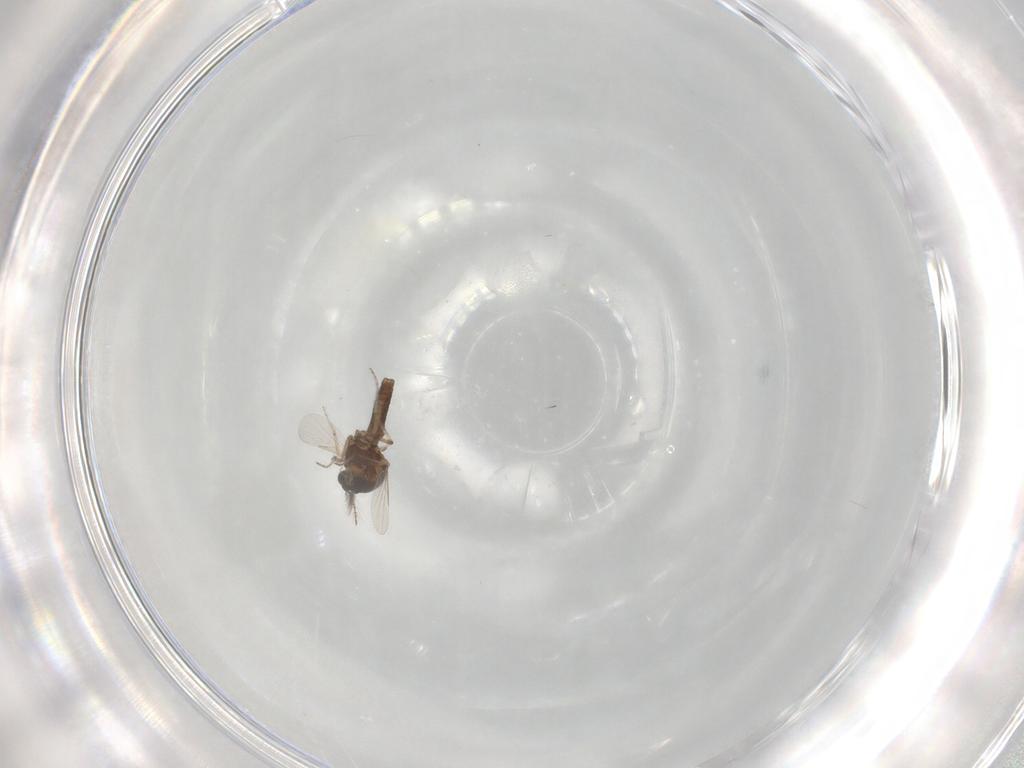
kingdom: Animalia
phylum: Arthropoda
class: Insecta
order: Diptera
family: Ceratopogonidae
